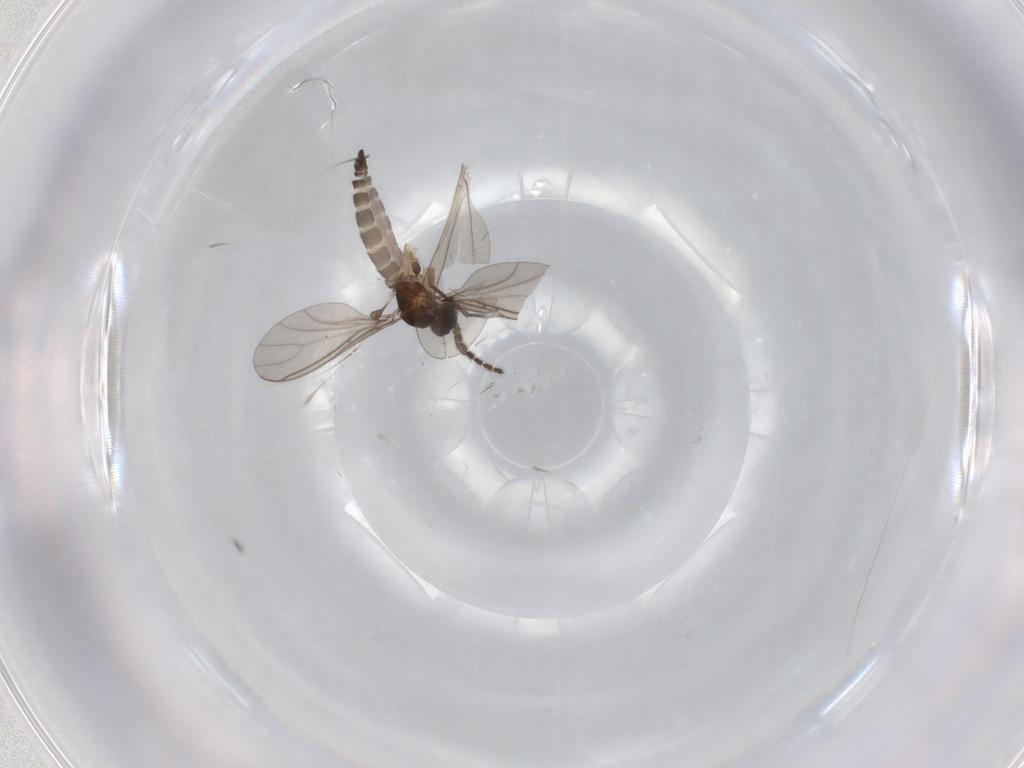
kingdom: Animalia
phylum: Arthropoda
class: Insecta
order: Diptera
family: Sciaridae
